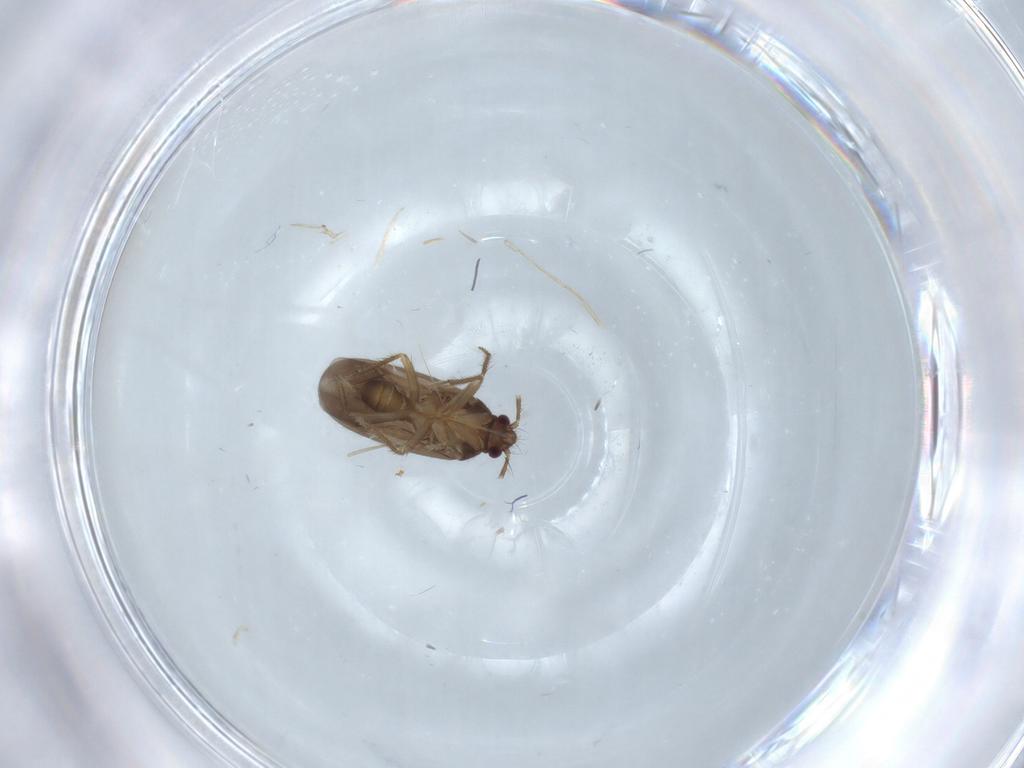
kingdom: Animalia
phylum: Arthropoda
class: Insecta
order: Hemiptera
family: Ceratocombidae
